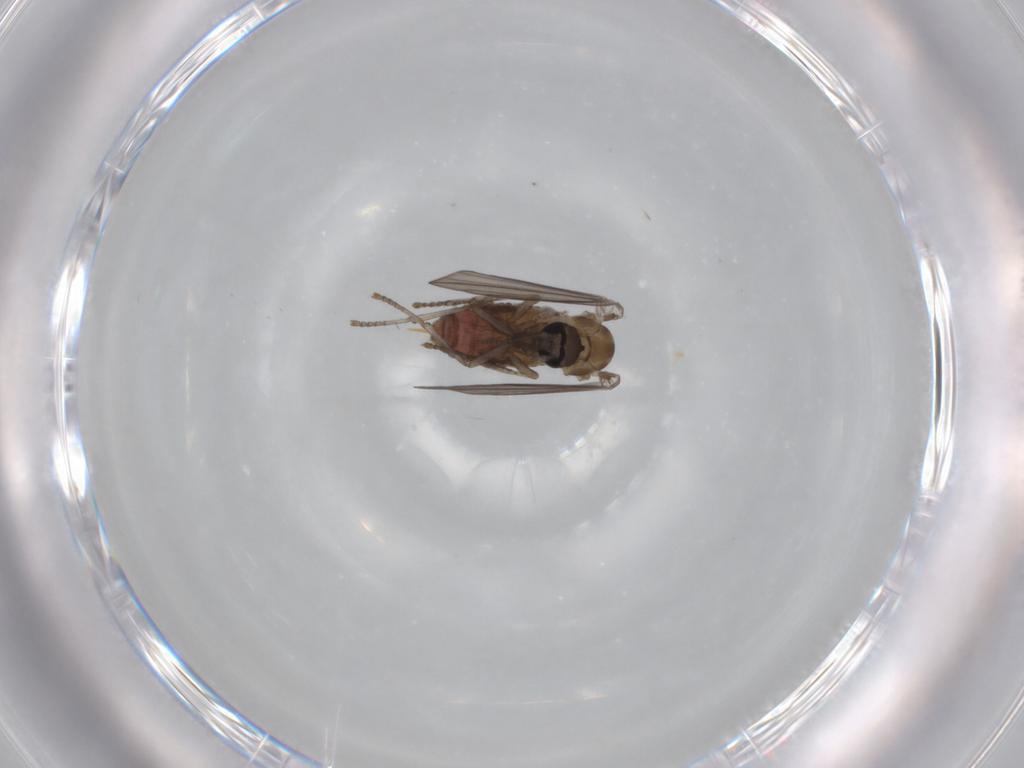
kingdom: Animalia
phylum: Arthropoda
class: Insecta
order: Diptera
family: Psychodidae
